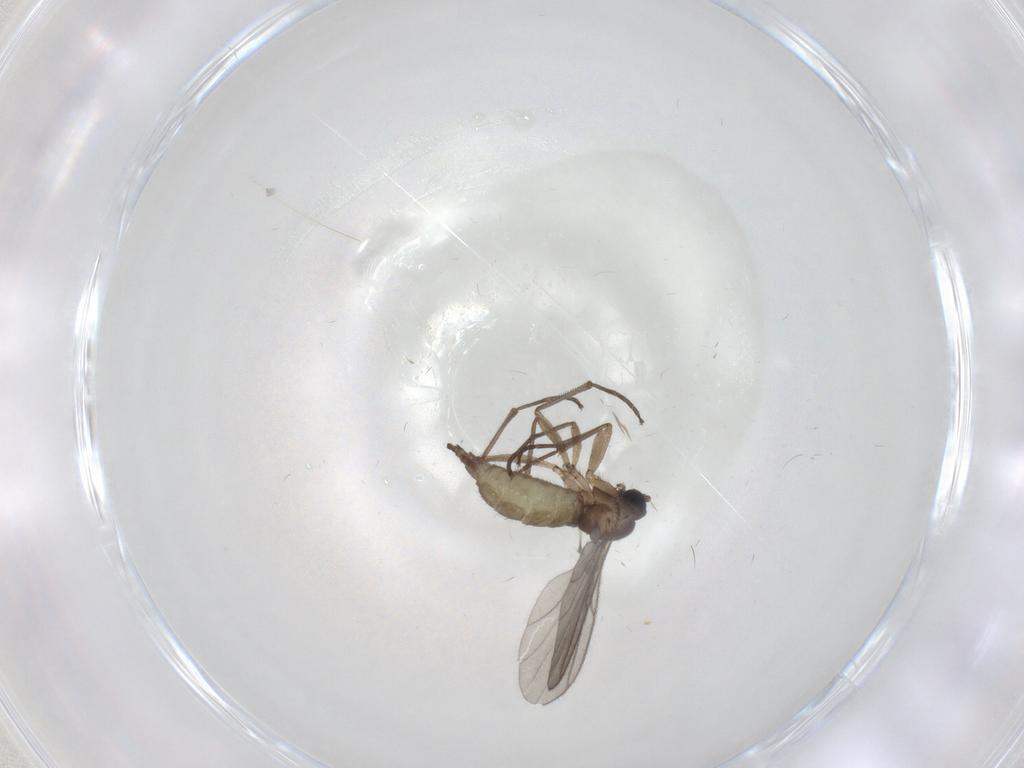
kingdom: Animalia
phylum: Arthropoda
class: Insecta
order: Diptera
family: Sciaridae
